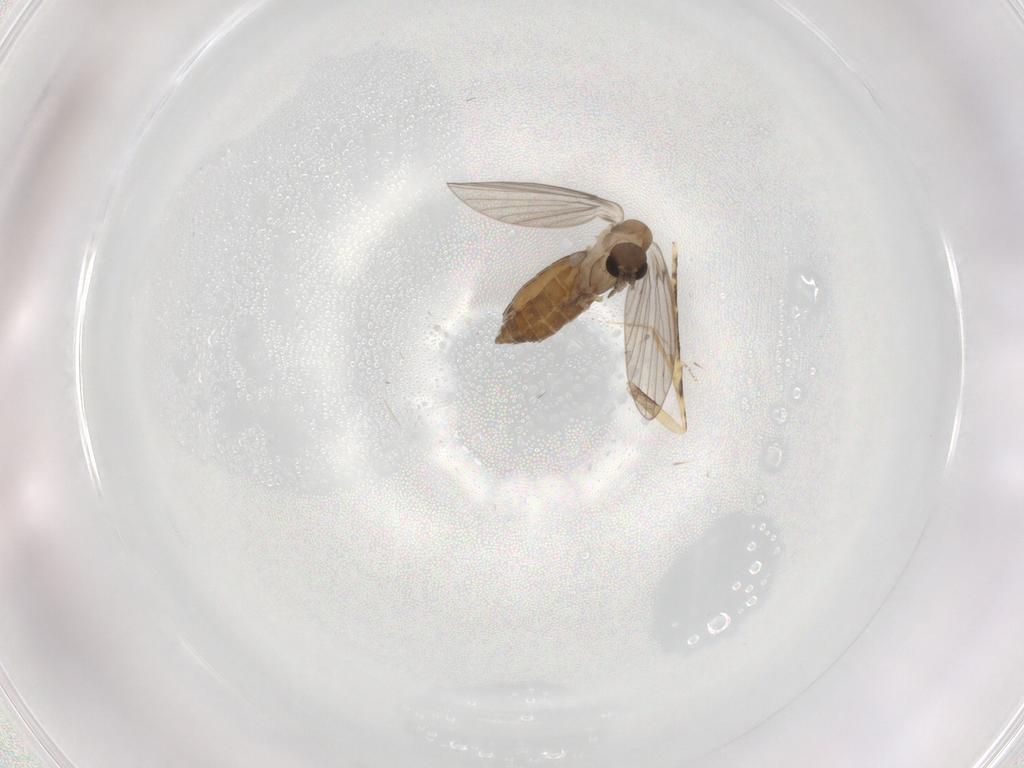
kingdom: Animalia
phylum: Arthropoda
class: Insecta
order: Diptera
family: Psychodidae
